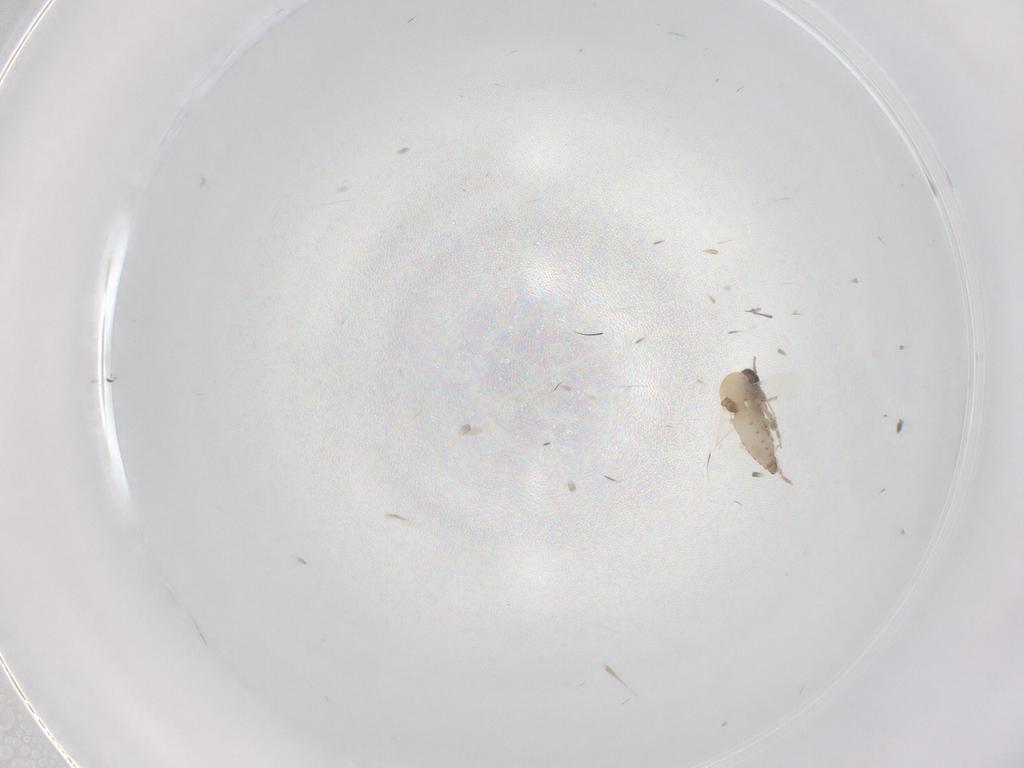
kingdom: Animalia
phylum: Arthropoda
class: Insecta
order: Diptera
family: Ceratopogonidae
